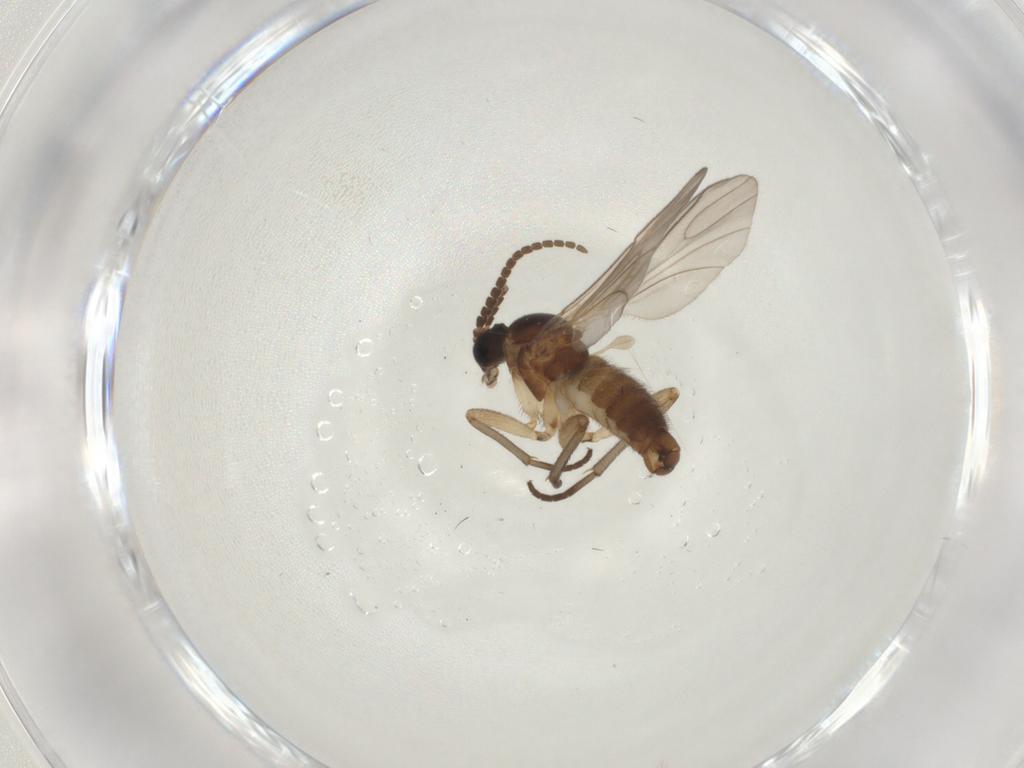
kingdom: Animalia
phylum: Arthropoda
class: Insecta
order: Diptera
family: Sciaridae
